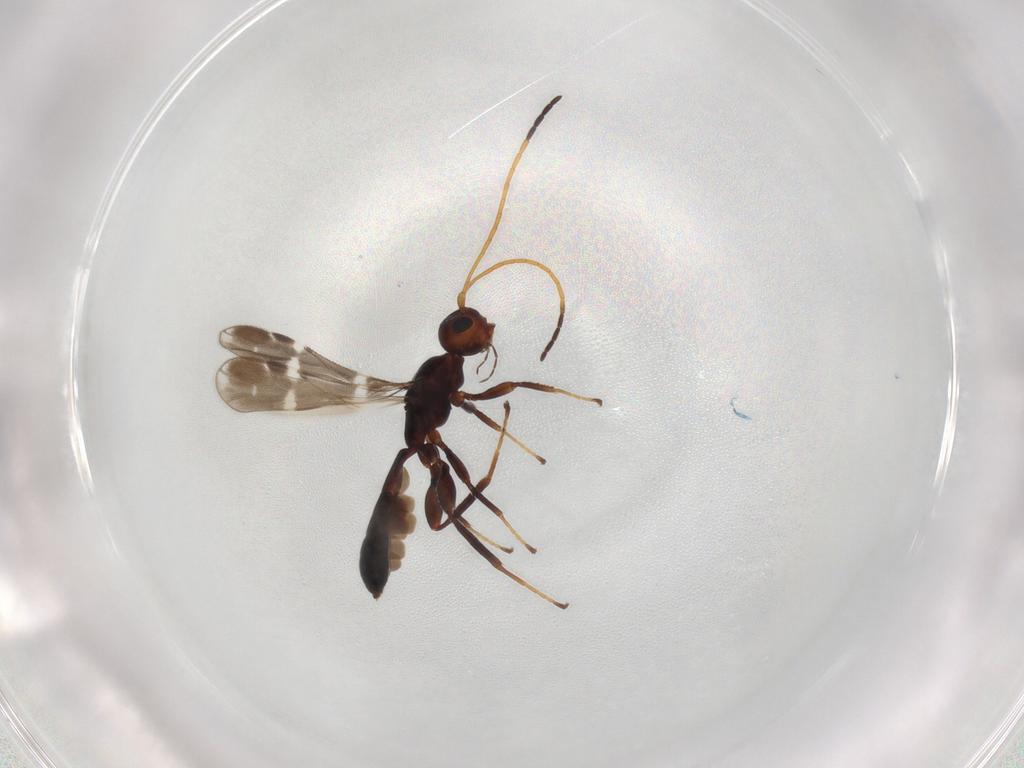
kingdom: Animalia
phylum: Arthropoda
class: Insecta
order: Hymenoptera
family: Braconidae
